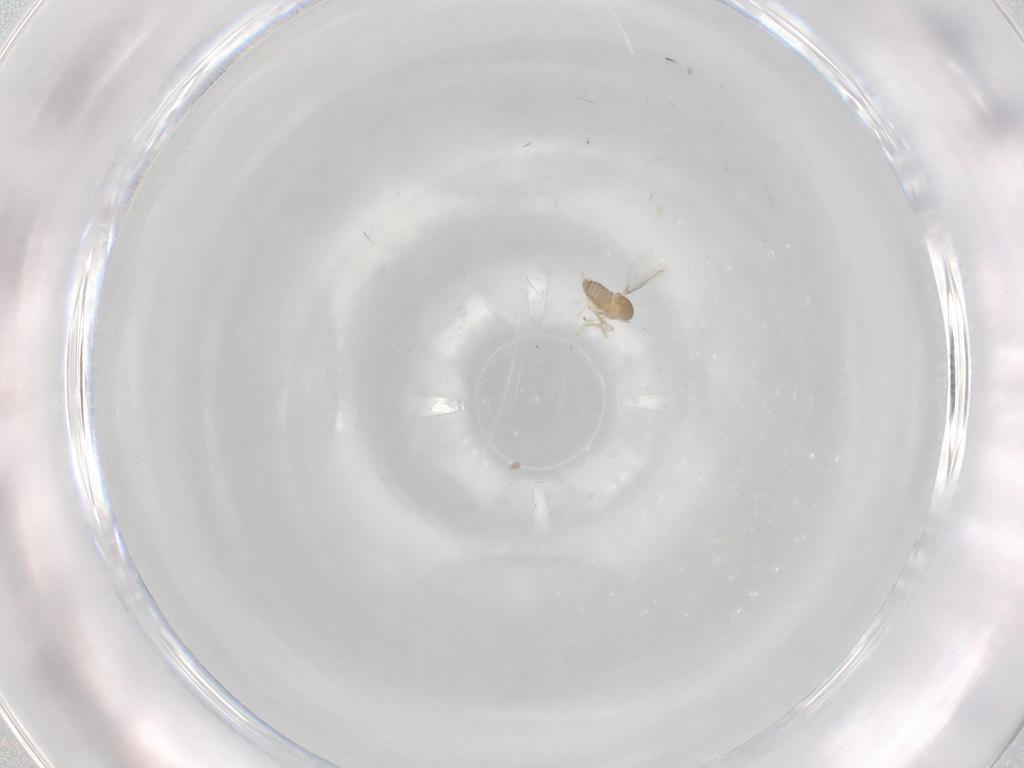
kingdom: Animalia
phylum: Arthropoda
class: Insecta
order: Diptera
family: Cecidomyiidae
